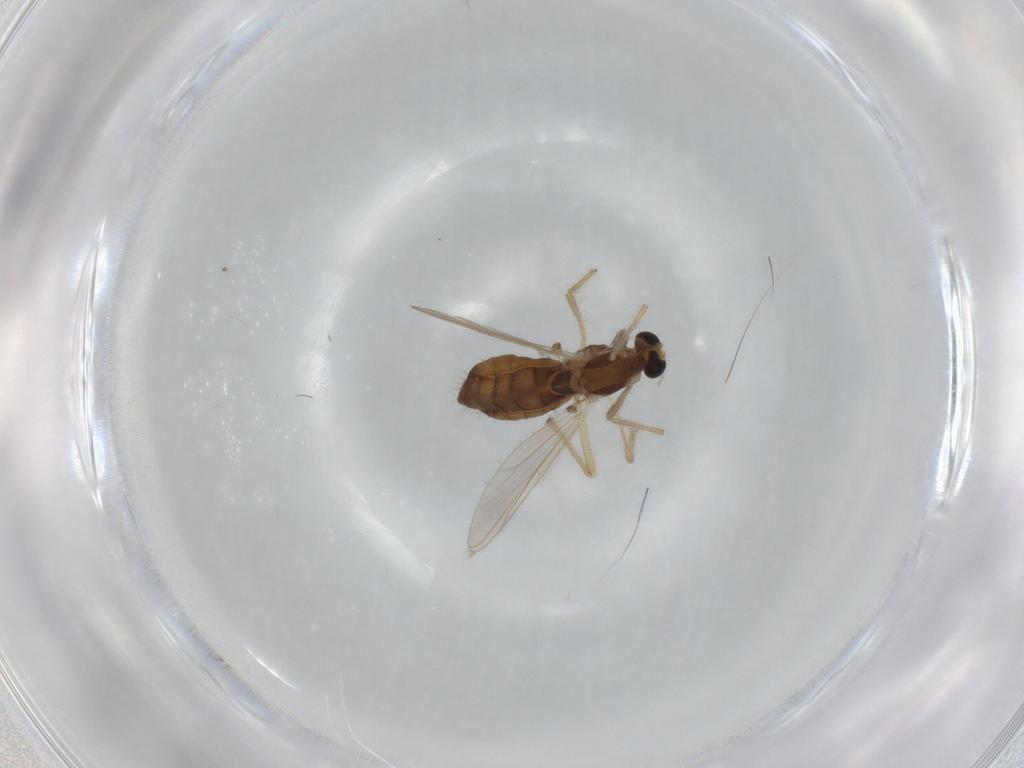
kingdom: Animalia
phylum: Arthropoda
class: Insecta
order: Diptera
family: Chironomidae
